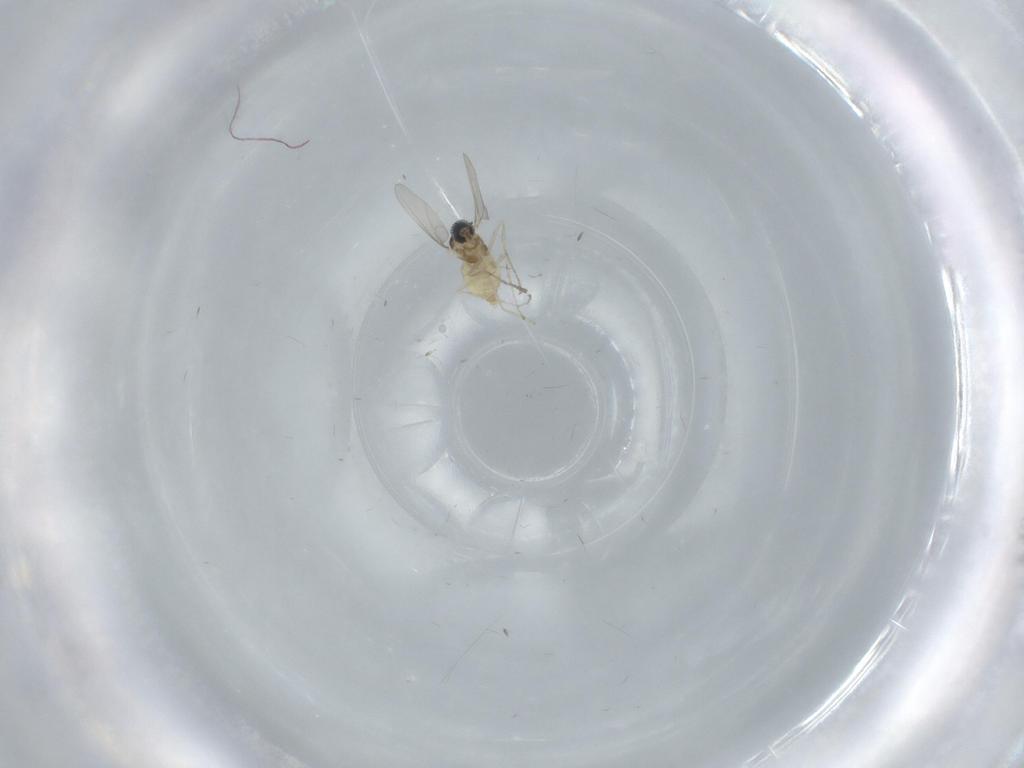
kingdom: Animalia
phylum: Arthropoda
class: Insecta
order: Diptera
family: Cecidomyiidae
